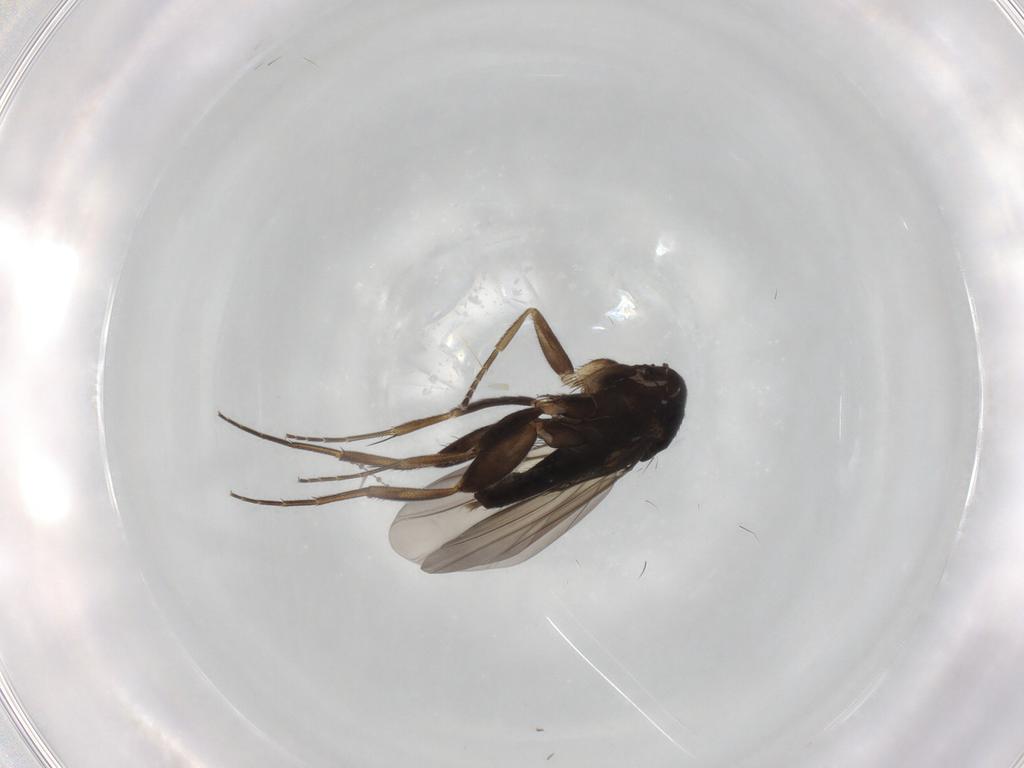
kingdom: Animalia
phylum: Arthropoda
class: Insecta
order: Diptera
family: Phoridae
